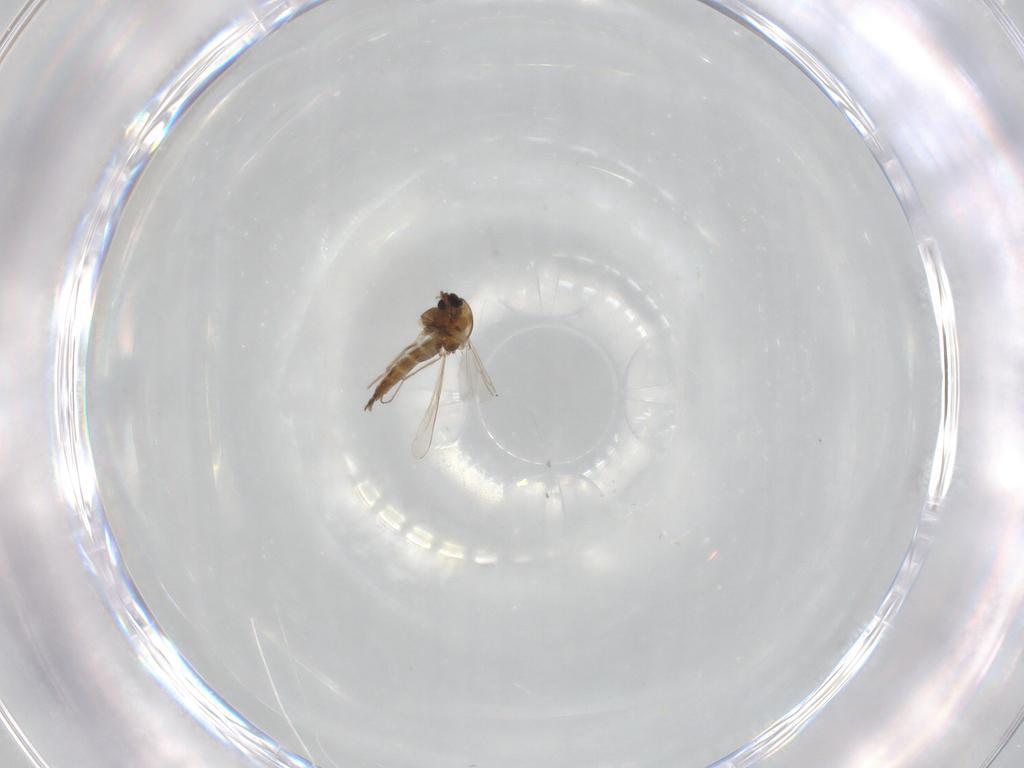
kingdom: Animalia
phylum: Arthropoda
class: Insecta
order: Diptera
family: Chironomidae
